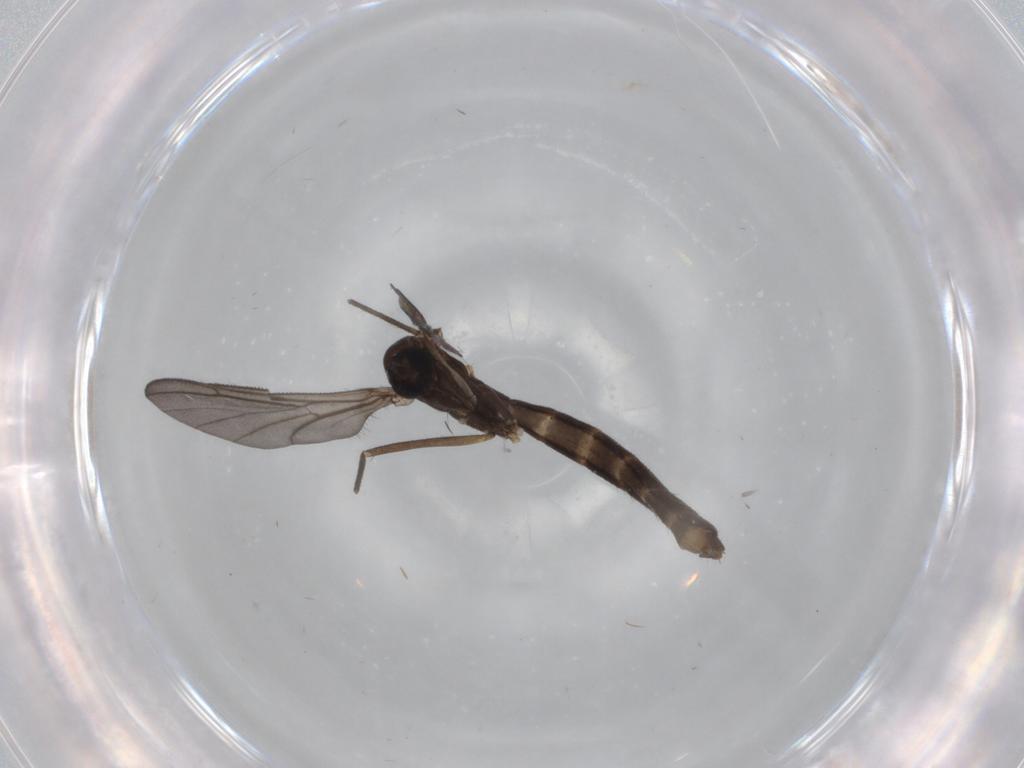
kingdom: Animalia
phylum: Arthropoda
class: Insecta
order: Diptera
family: Keroplatidae
